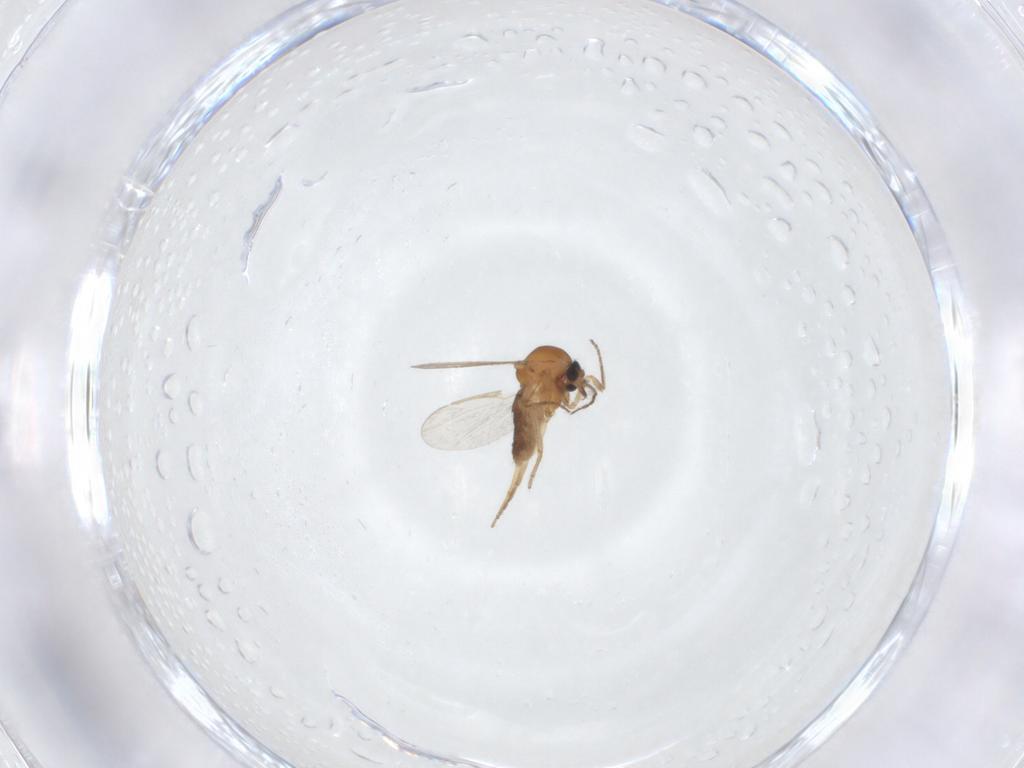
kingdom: Animalia
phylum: Arthropoda
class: Insecta
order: Diptera
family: Ceratopogonidae
